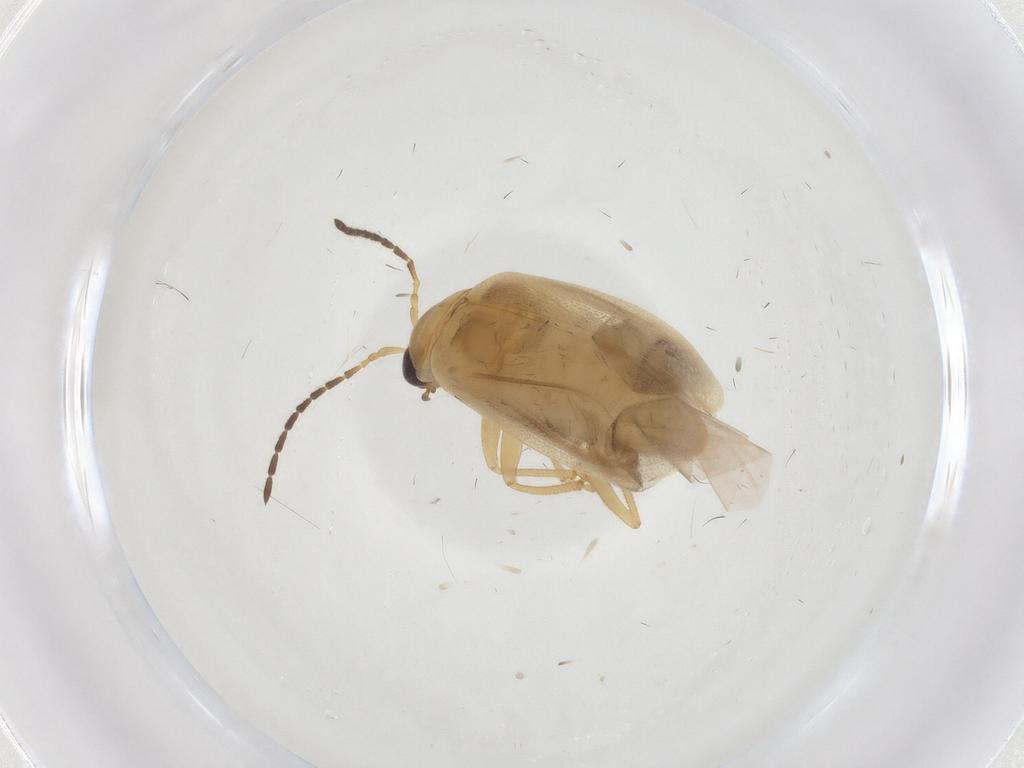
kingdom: Animalia
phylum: Arthropoda
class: Insecta
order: Coleoptera
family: Chrysomelidae
